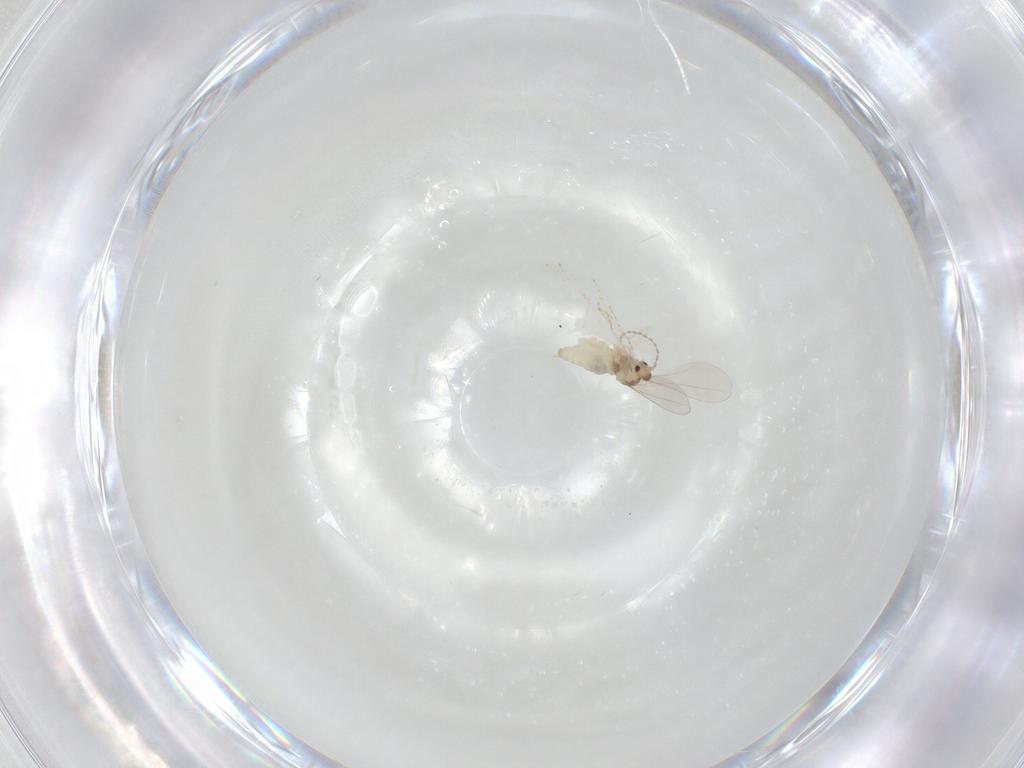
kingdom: Animalia
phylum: Arthropoda
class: Insecta
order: Diptera
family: Cecidomyiidae
